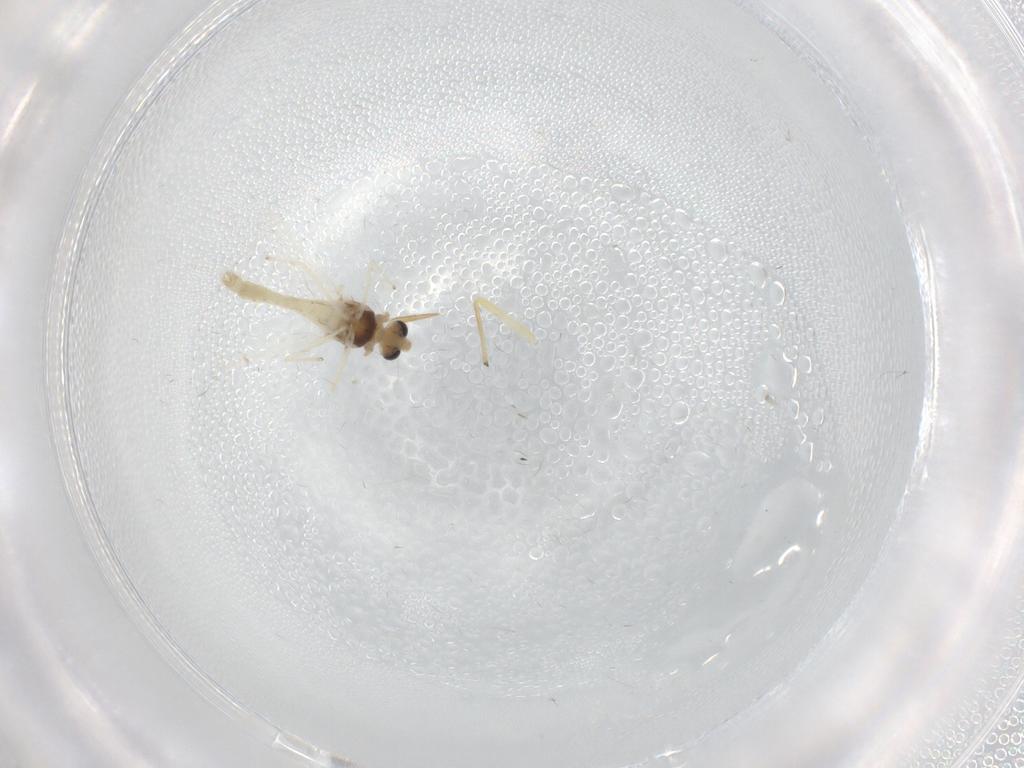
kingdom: Animalia
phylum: Arthropoda
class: Insecta
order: Diptera
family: Chironomidae
